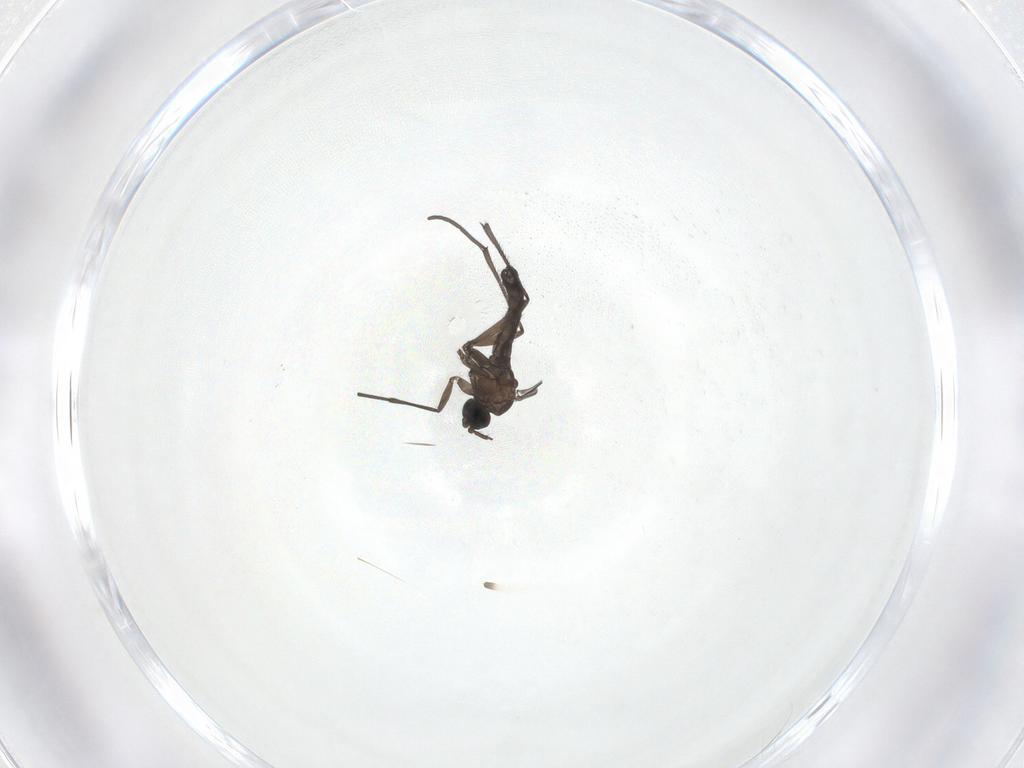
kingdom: Animalia
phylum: Arthropoda
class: Insecta
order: Diptera
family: Sciaridae
